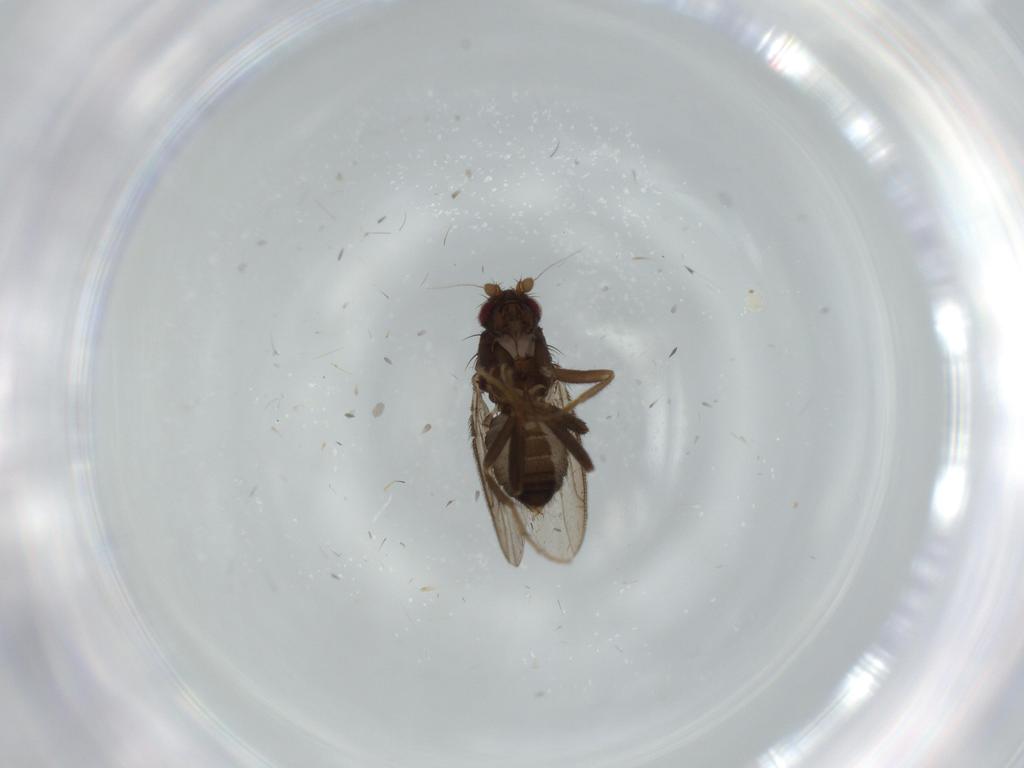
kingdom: Animalia
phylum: Arthropoda
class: Insecta
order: Diptera
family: Sphaeroceridae
